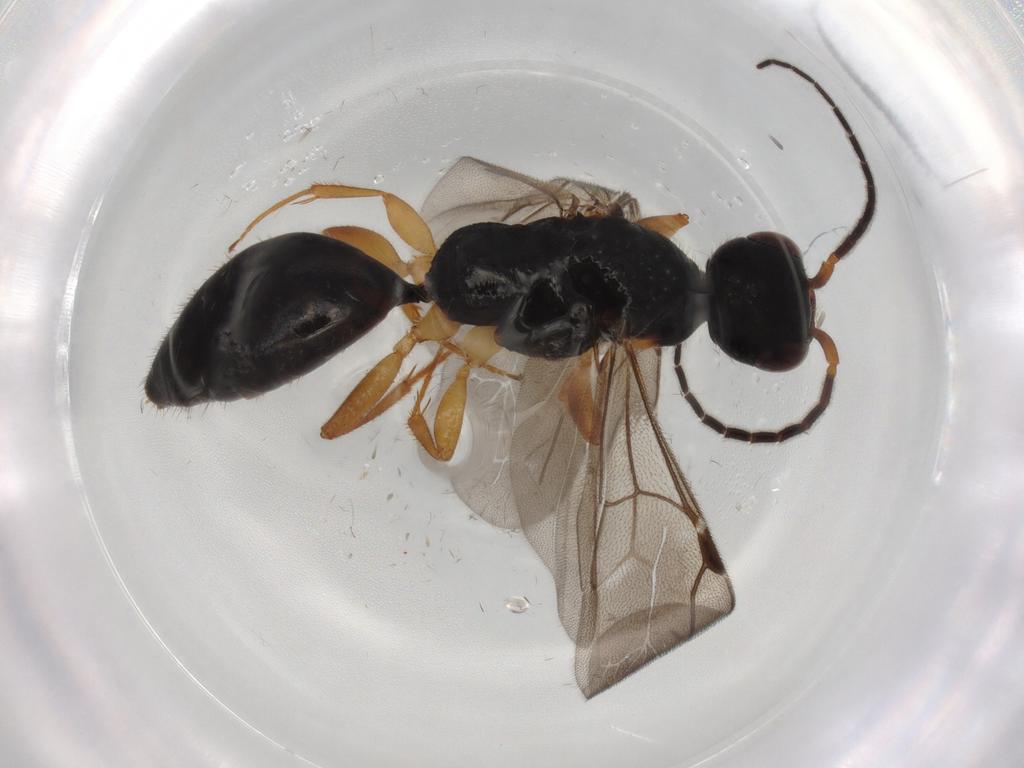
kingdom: Animalia
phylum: Arthropoda
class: Insecta
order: Hymenoptera
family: Bethylidae
